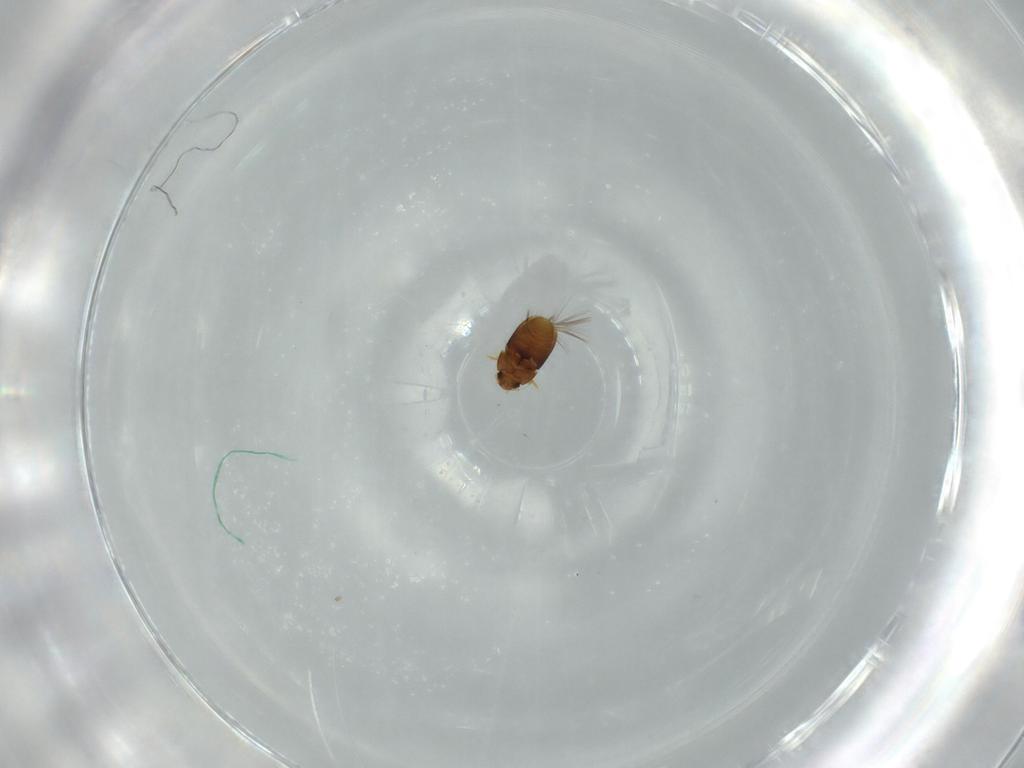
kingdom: Animalia
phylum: Arthropoda
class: Insecta
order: Coleoptera
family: Ptiliidae
